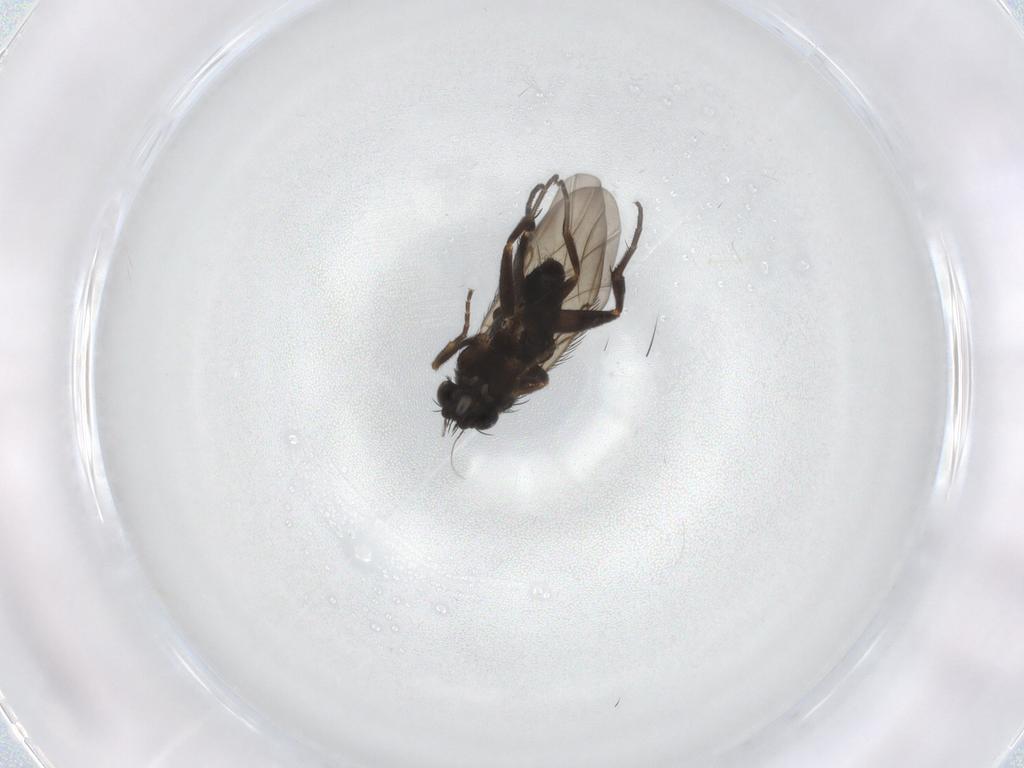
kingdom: Animalia
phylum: Arthropoda
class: Insecta
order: Diptera
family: Phoridae
